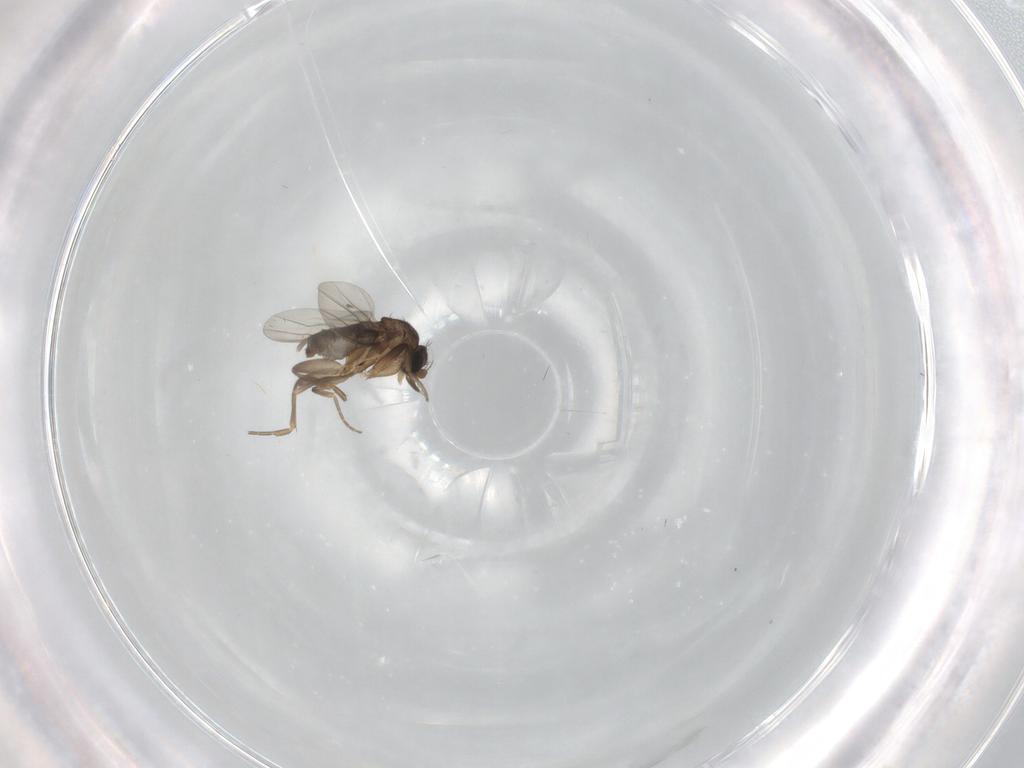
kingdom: Animalia
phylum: Arthropoda
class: Insecta
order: Diptera
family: Phoridae
